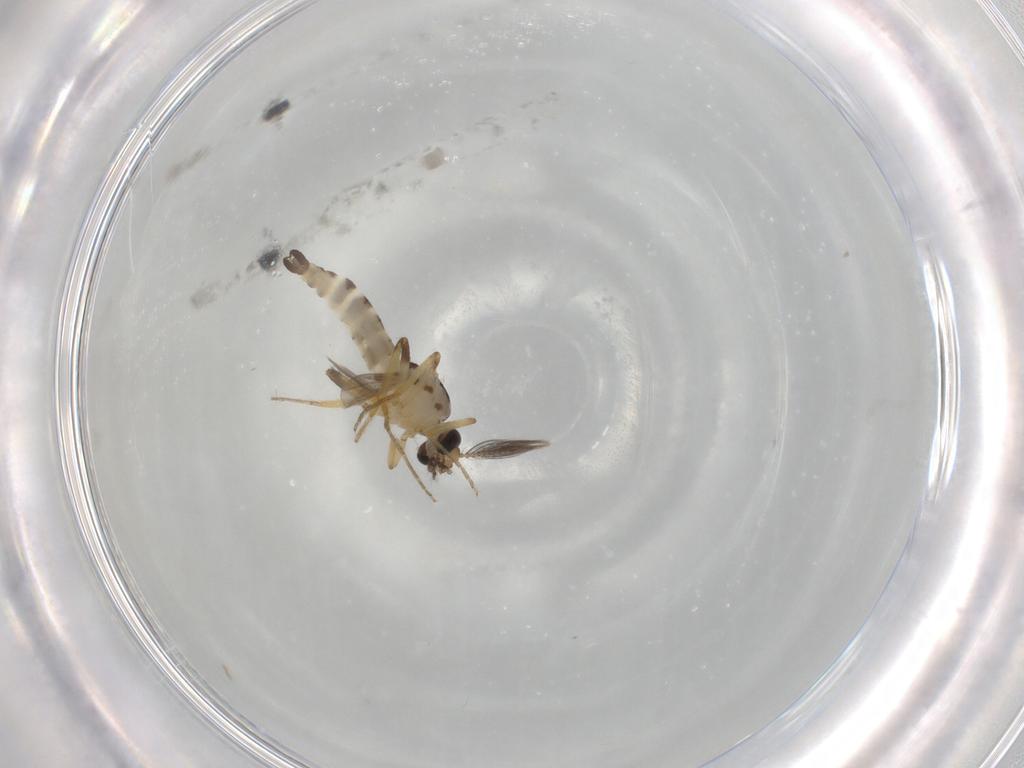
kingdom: Animalia
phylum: Arthropoda
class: Insecta
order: Diptera
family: Ceratopogonidae
